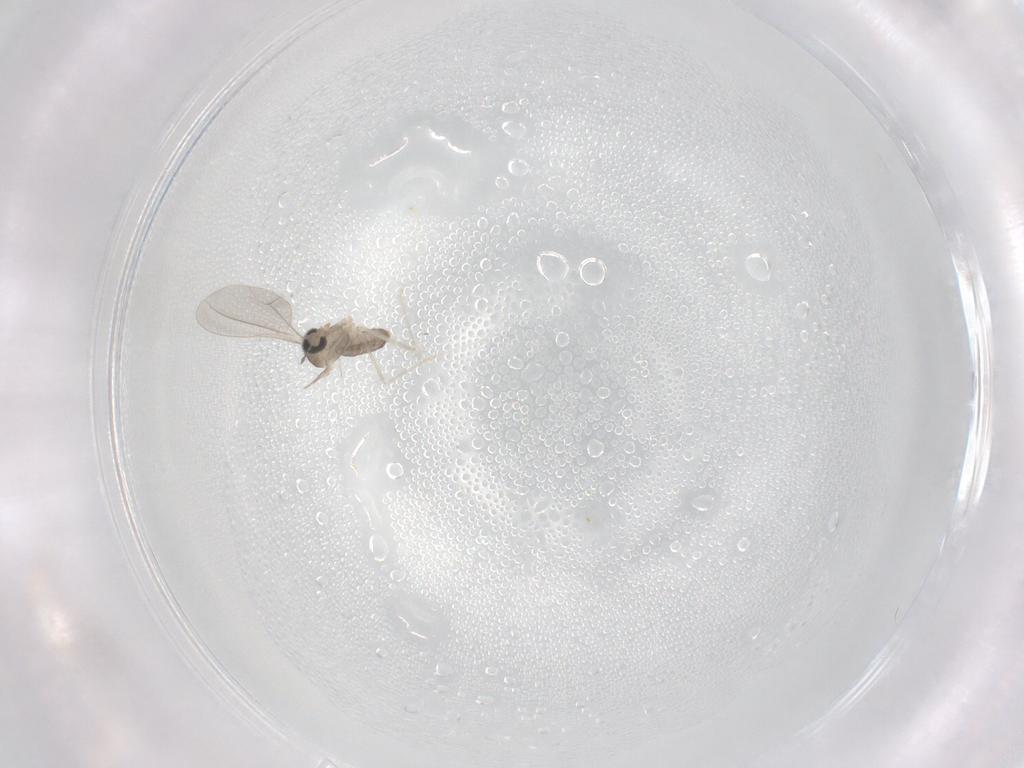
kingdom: Animalia
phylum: Arthropoda
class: Insecta
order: Diptera
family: Cecidomyiidae
